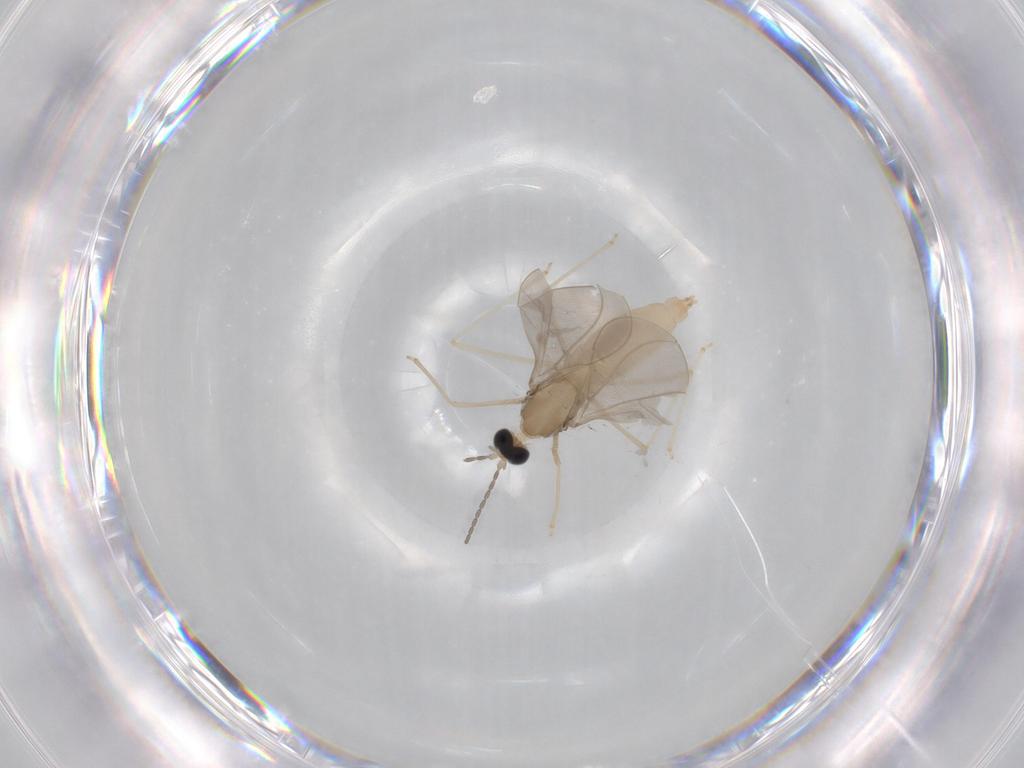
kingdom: Animalia
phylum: Arthropoda
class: Insecta
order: Diptera
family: Cecidomyiidae
